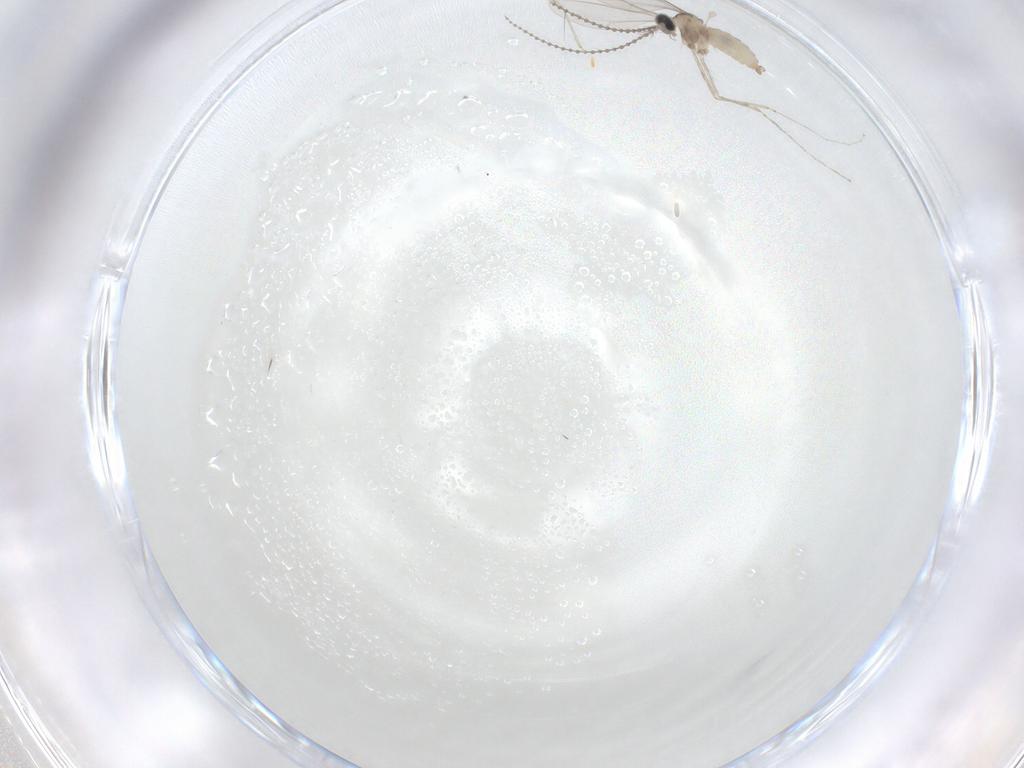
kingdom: Animalia
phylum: Arthropoda
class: Insecta
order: Diptera
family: Cecidomyiidae
